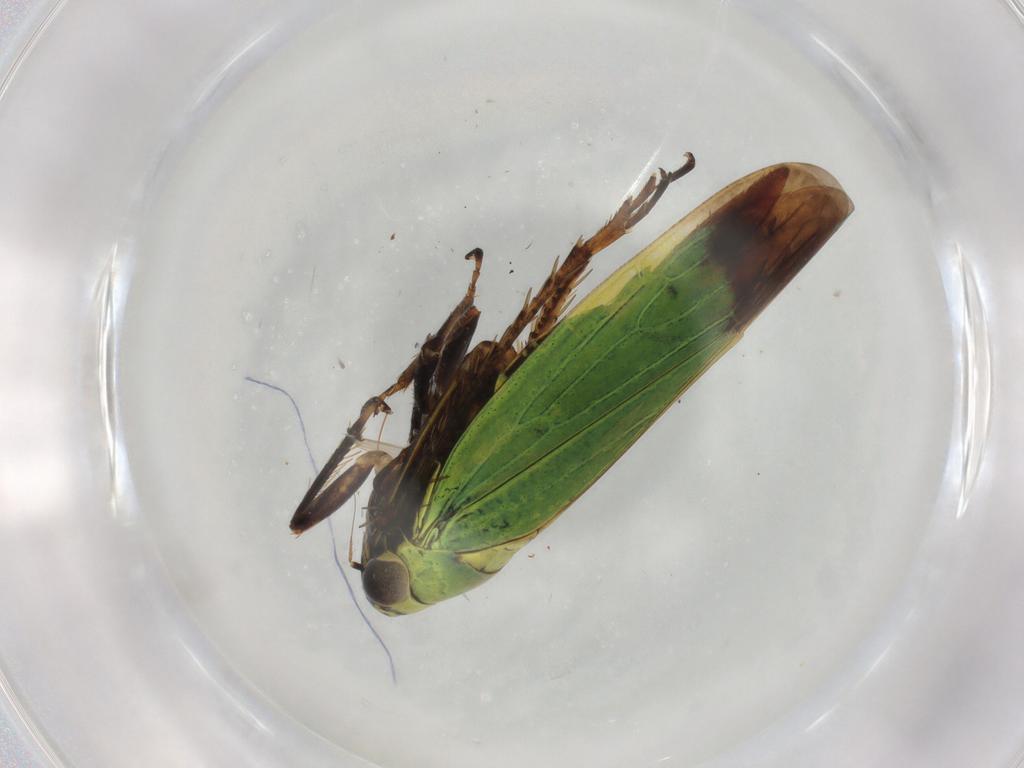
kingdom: Animalia
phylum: Arthropoda
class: Insecta
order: Hemiptera
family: Cicadellidae
